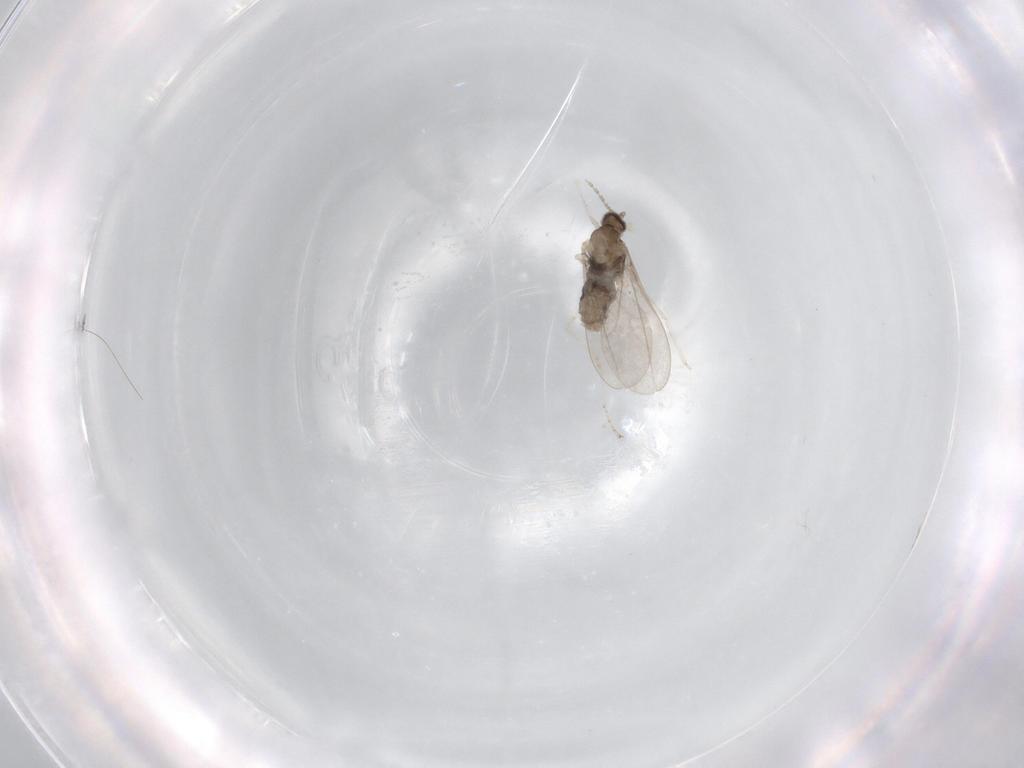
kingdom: Animalia
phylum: Arthropoda
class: Insecta
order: Diptera
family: Cecidomyiidae
